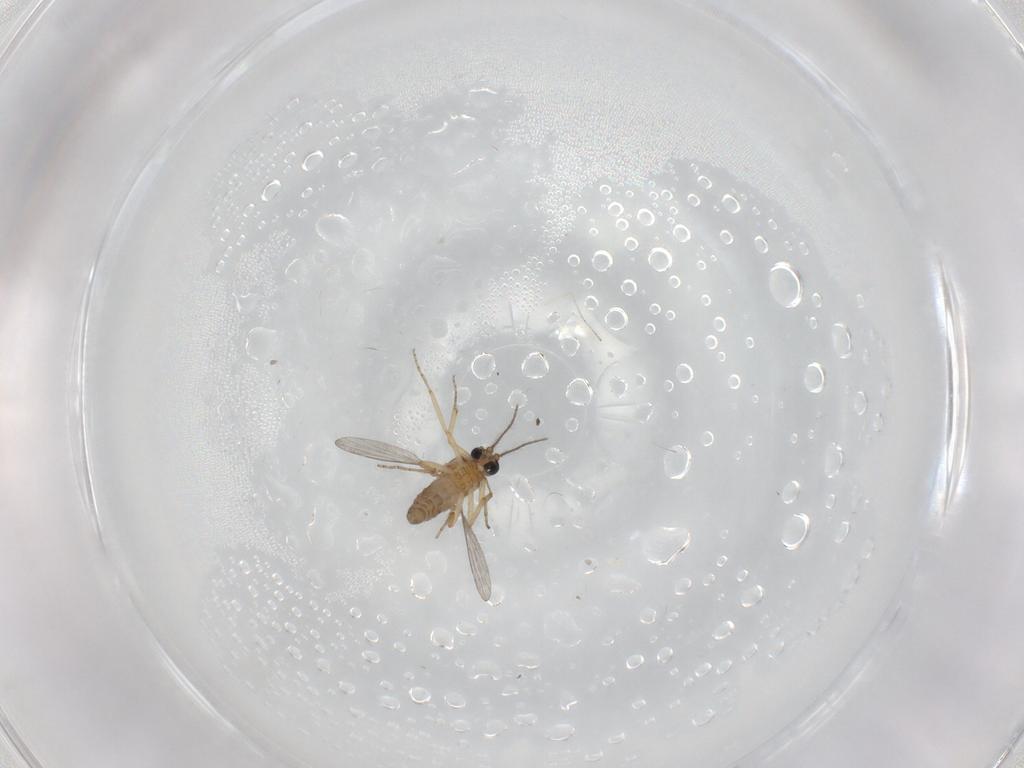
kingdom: Animalia
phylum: Arthropoda
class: Insecta
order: Diptera
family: Cecidomyiidae
